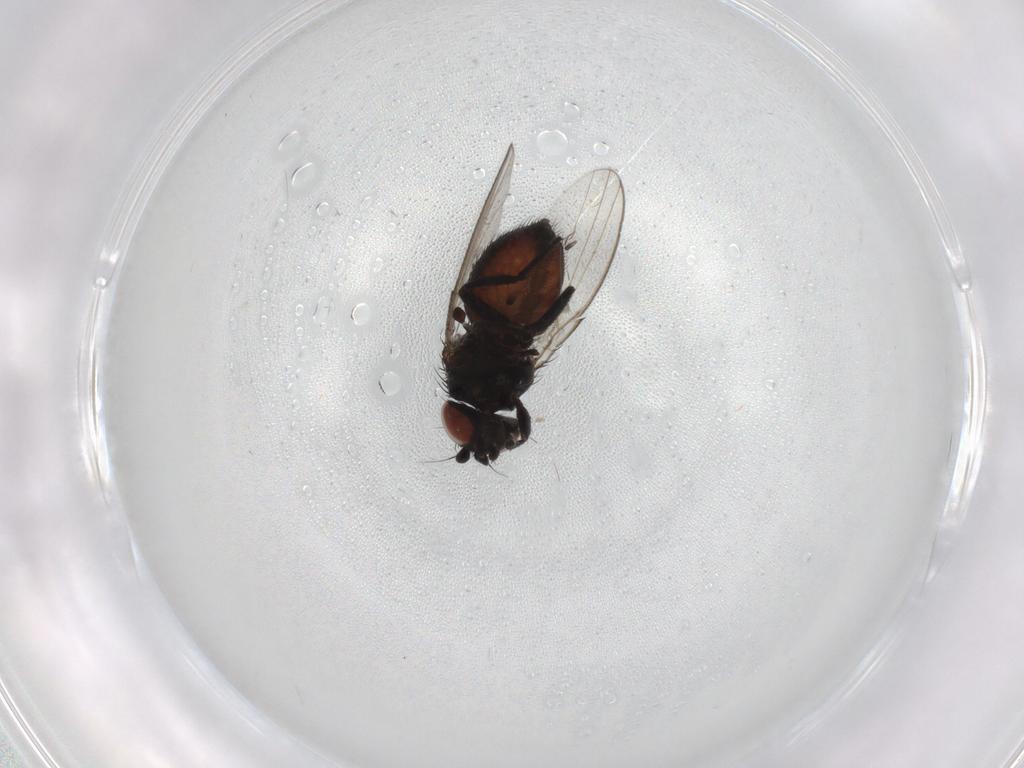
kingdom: Animalia
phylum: Arthropoda
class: Insecta
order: Diptera
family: Milichiidae
